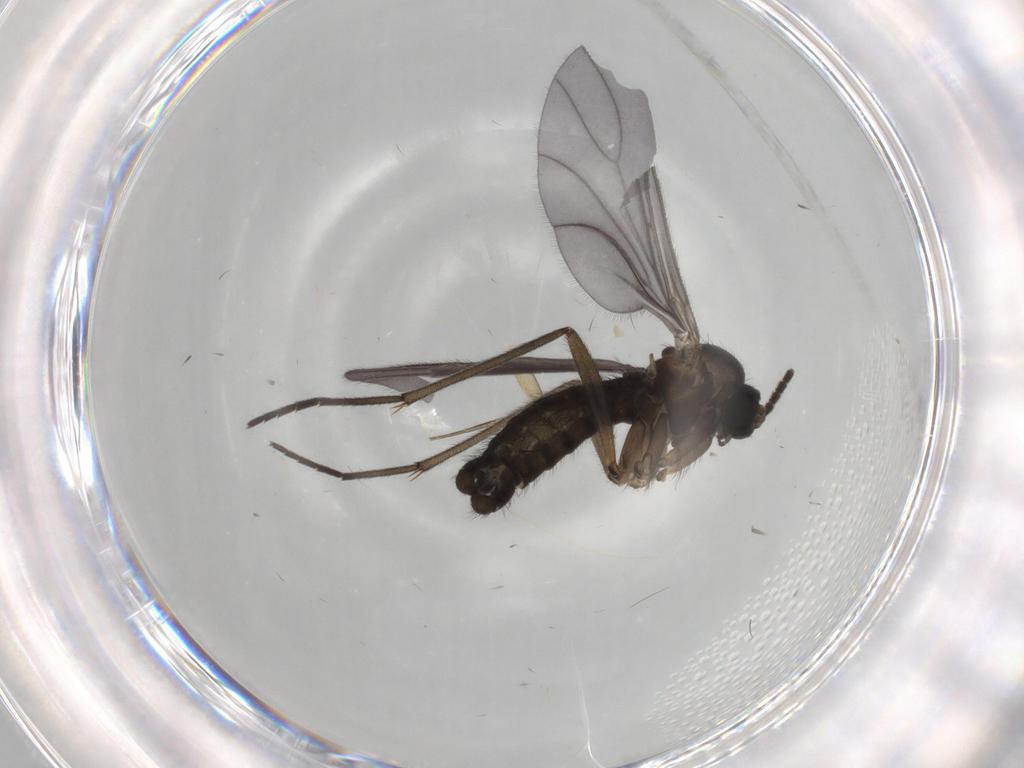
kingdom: Animalia
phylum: Arthropoda
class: Insecta
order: Diptera
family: Sciaridae
